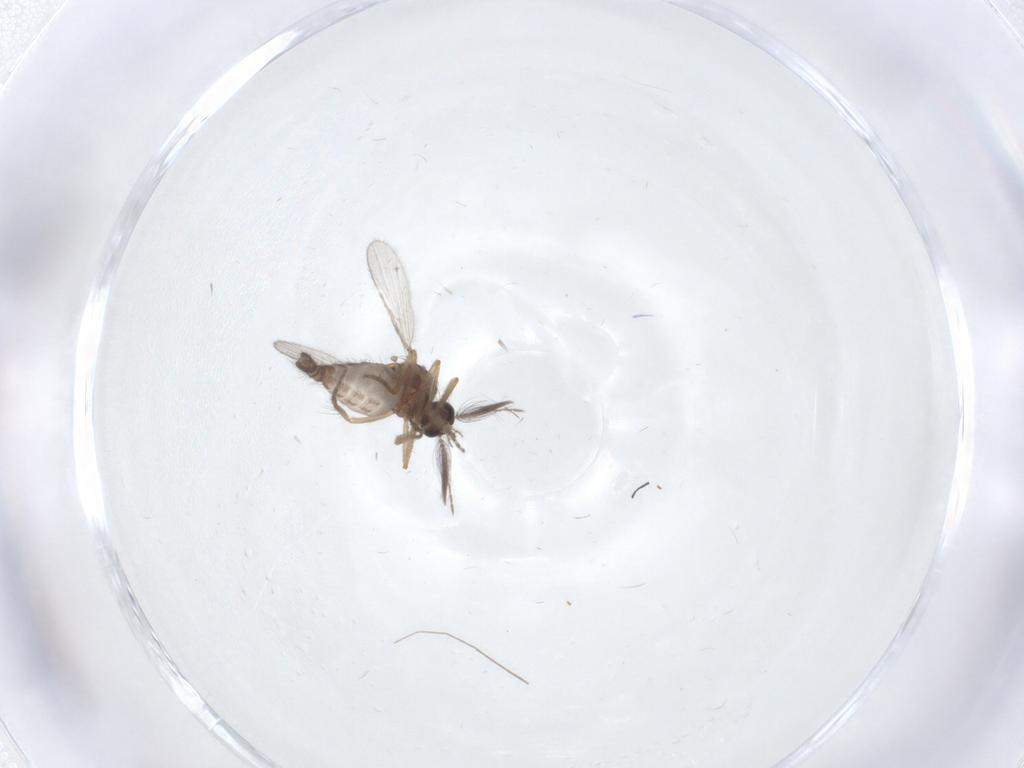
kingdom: Animalia
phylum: Arthropoda
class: Insecta
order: Diptera
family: Ceratopogonidae
